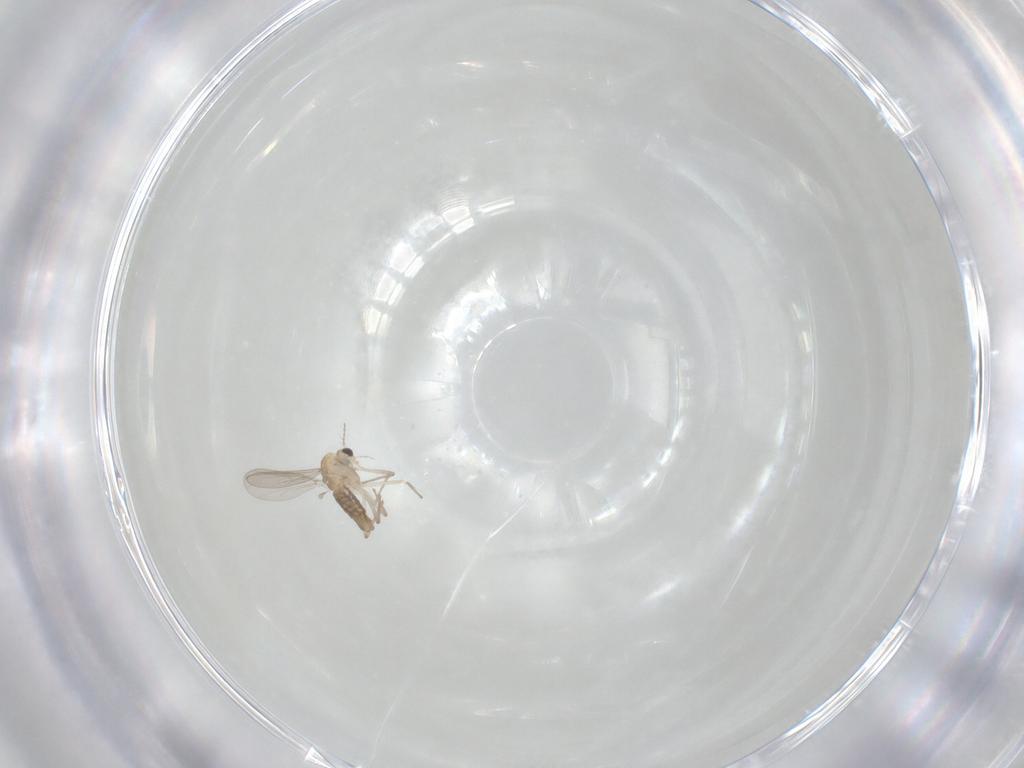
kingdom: Animalia
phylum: Arthropoda
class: Insecta
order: Diptera
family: Chironomidae
